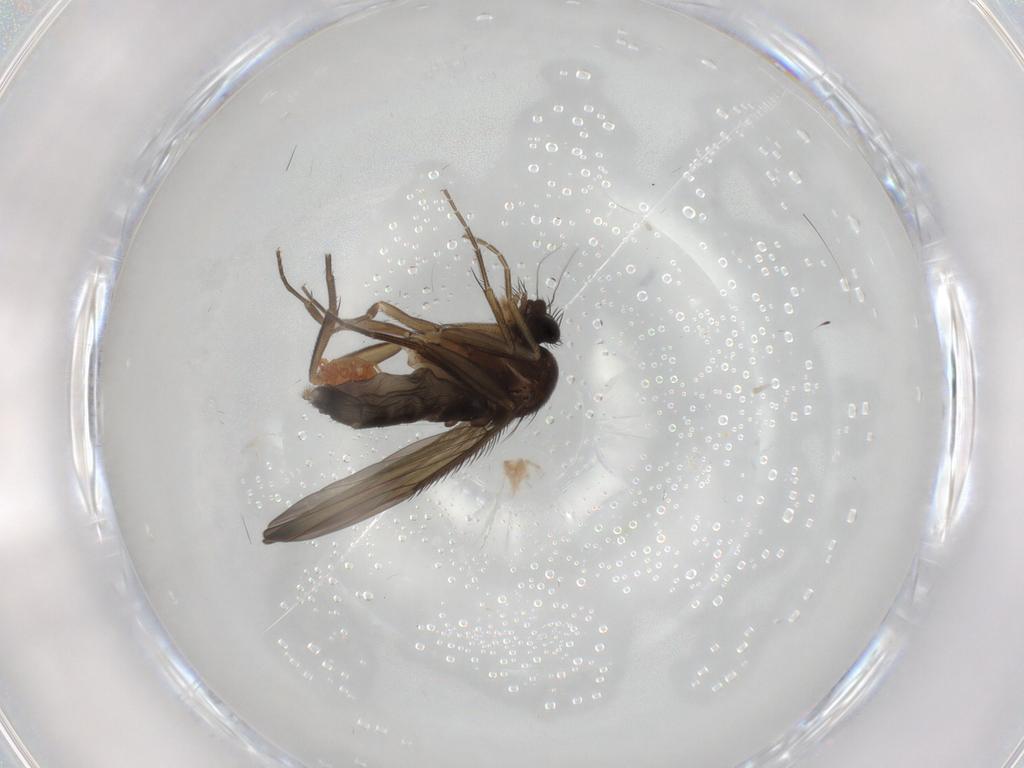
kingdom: Animalia
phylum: Arthropoda
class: Insecta
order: Diptera
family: Phoridae
